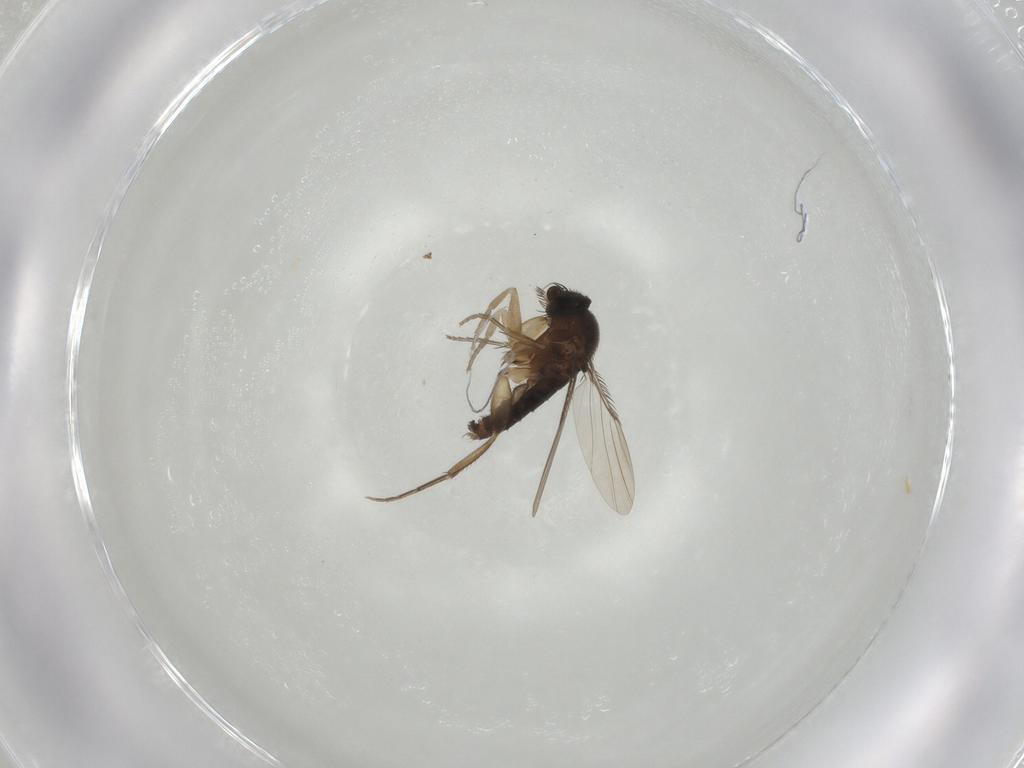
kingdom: Animalia
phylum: Arthropoda
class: Insecta
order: Diptera
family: Phoridae
